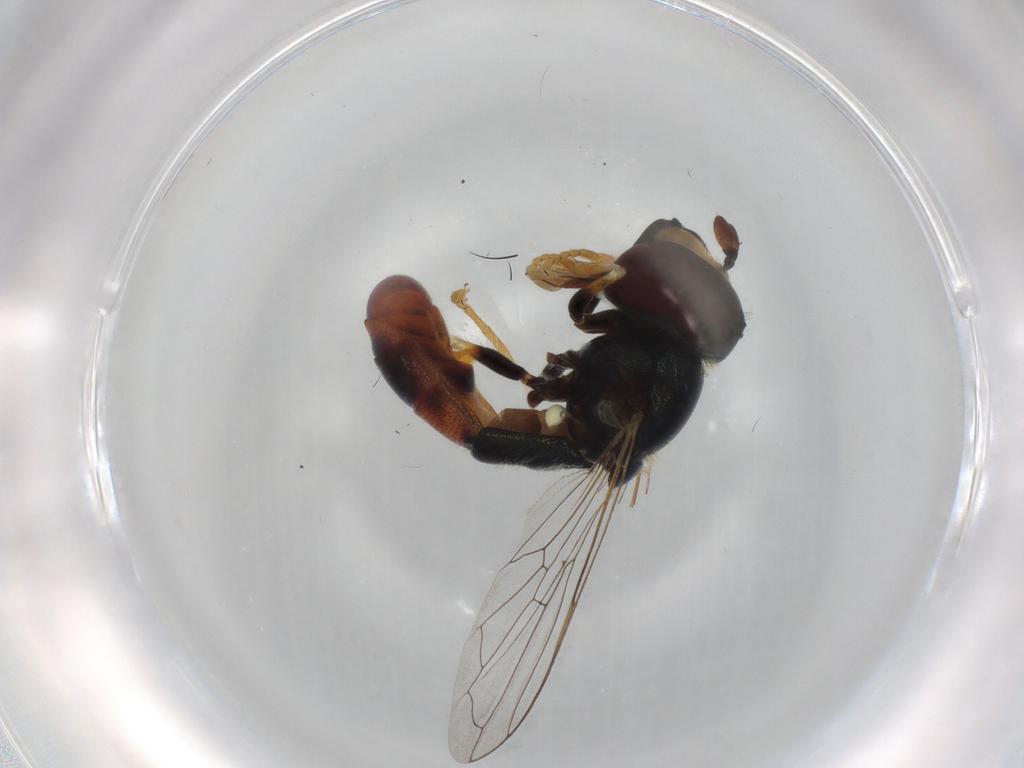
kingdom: Animalia
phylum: Arthropoda
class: Insecta
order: Diptera
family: Syrphidae
